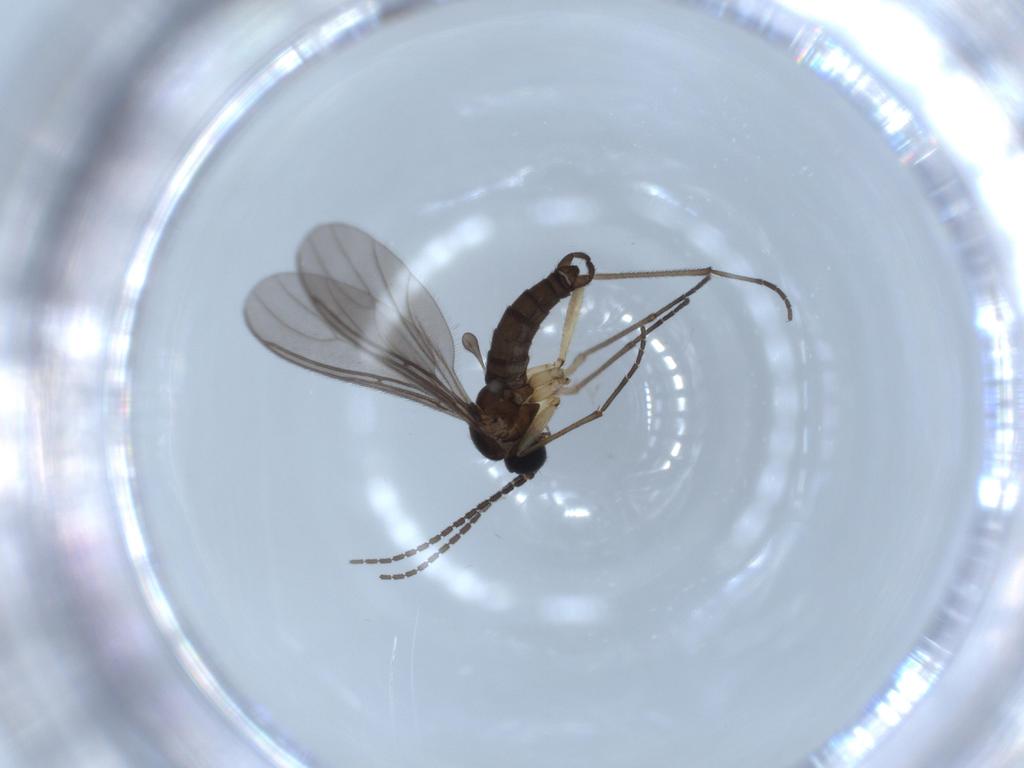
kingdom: Animalia
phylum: Arthropoda
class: Insecta
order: Diptera
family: Sciaridae
